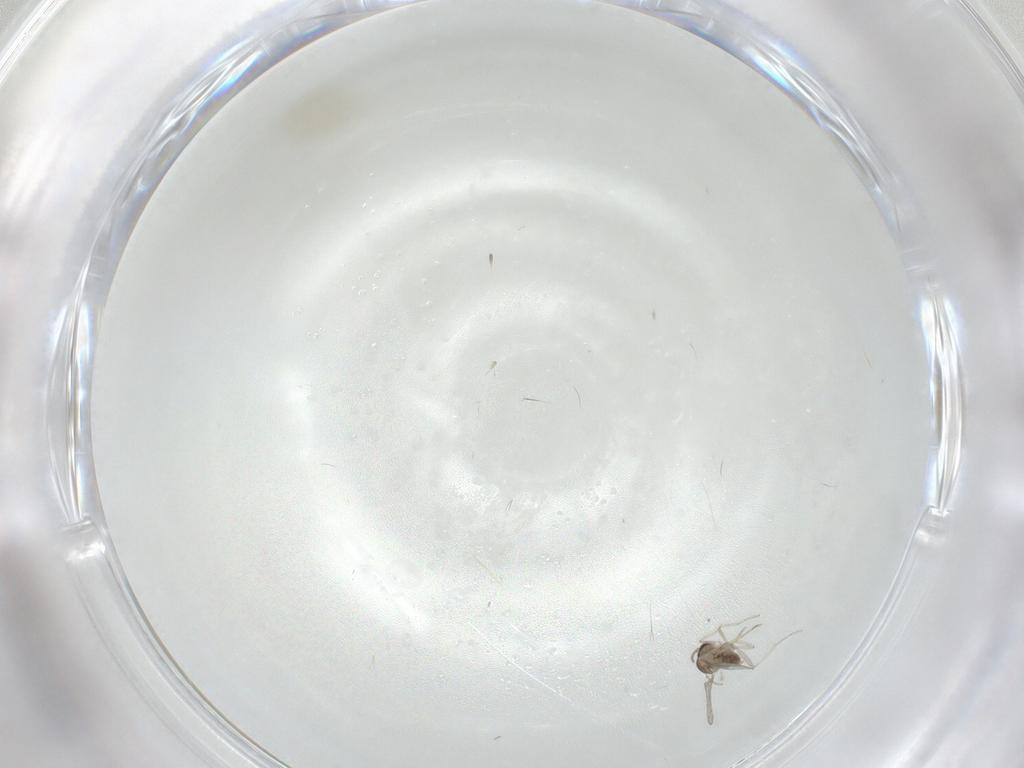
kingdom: Animalia
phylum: Arthropoda
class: Insecta
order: Diptera
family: Cecidomyiidae
